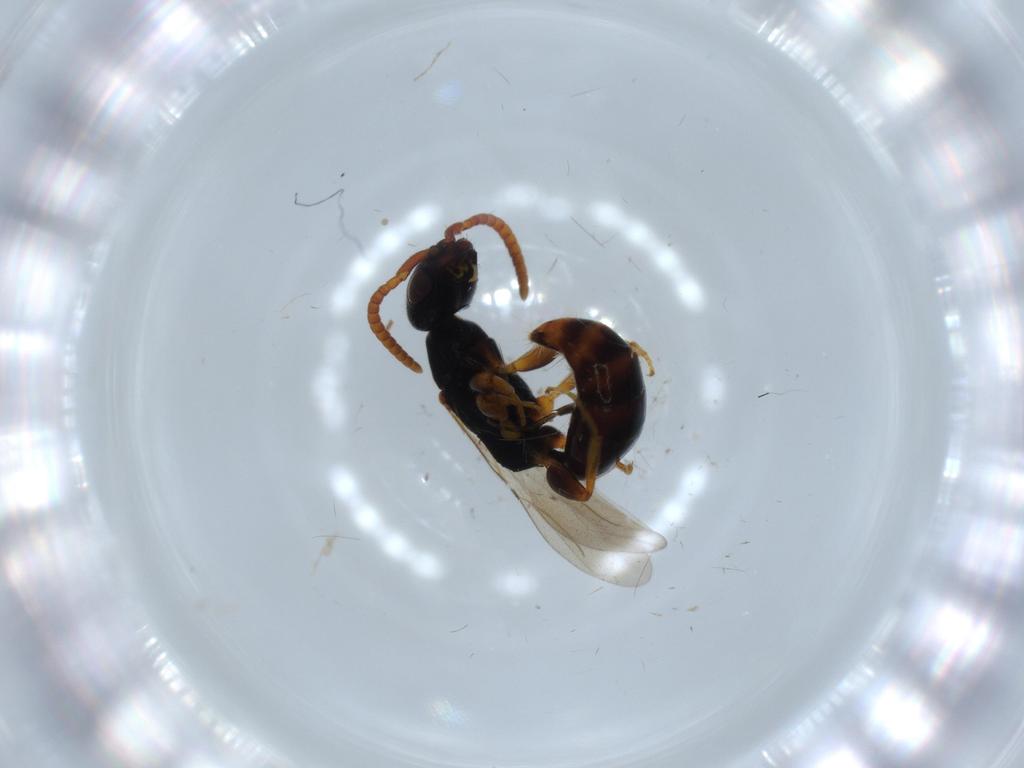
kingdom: Animalia
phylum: Arthropoda
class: Insecta
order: Hymenoptera
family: Bethylidae
